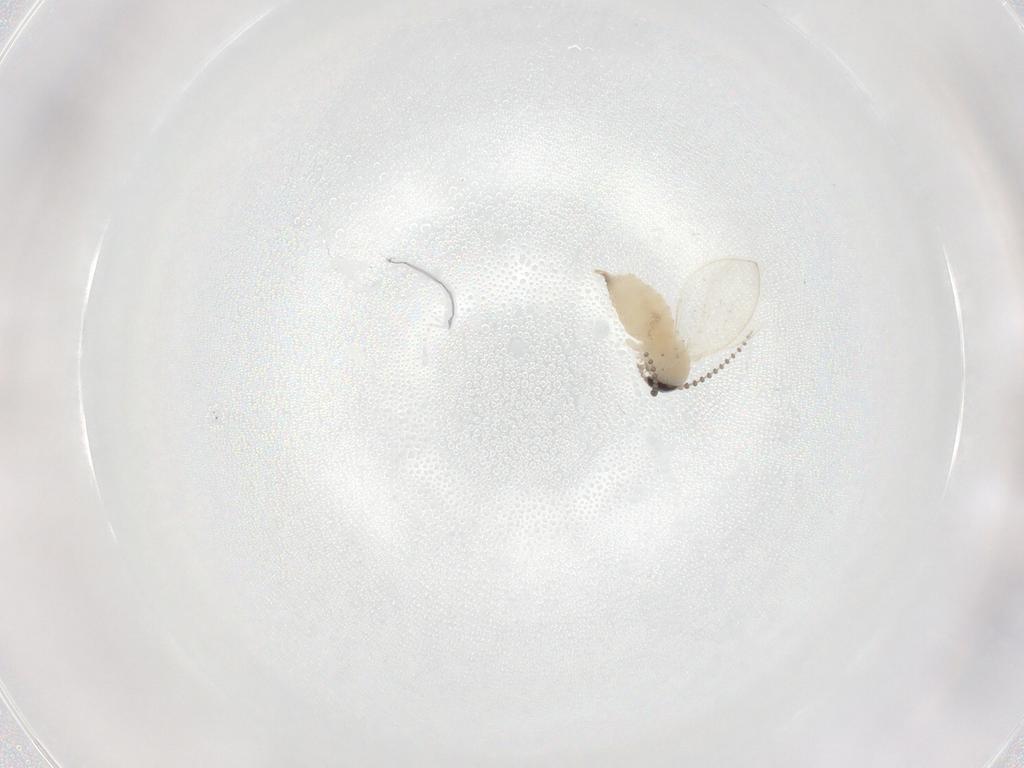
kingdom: Animalia
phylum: Arthropoda
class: Insecta
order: Diptera
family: Psychodidae
